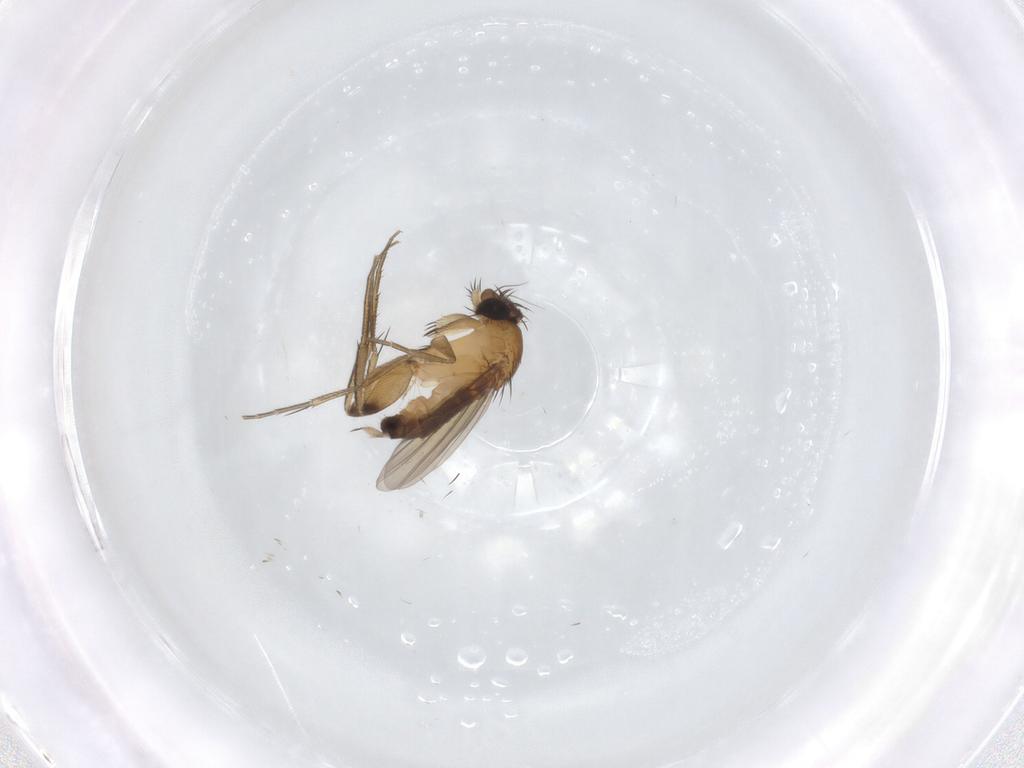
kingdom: Animalia
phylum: Arthropoda
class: Insecta
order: Diptera
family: Phoridae
